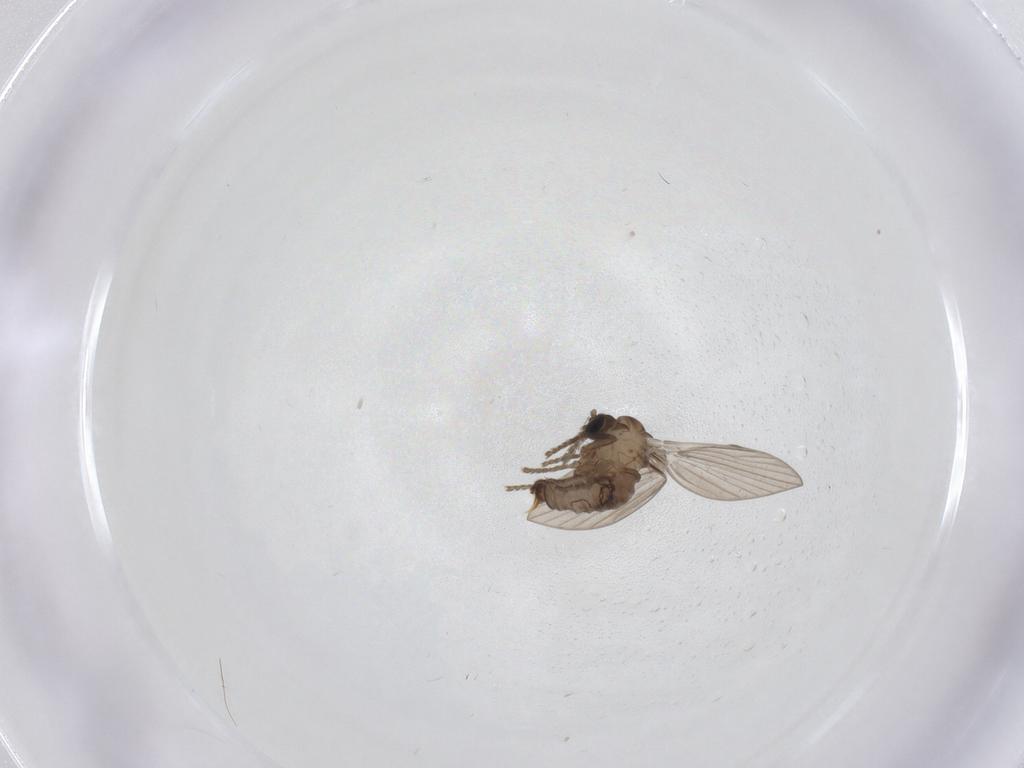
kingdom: Animalia
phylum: Arthropoda
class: Insecta
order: Diptera
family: Psychodidae
